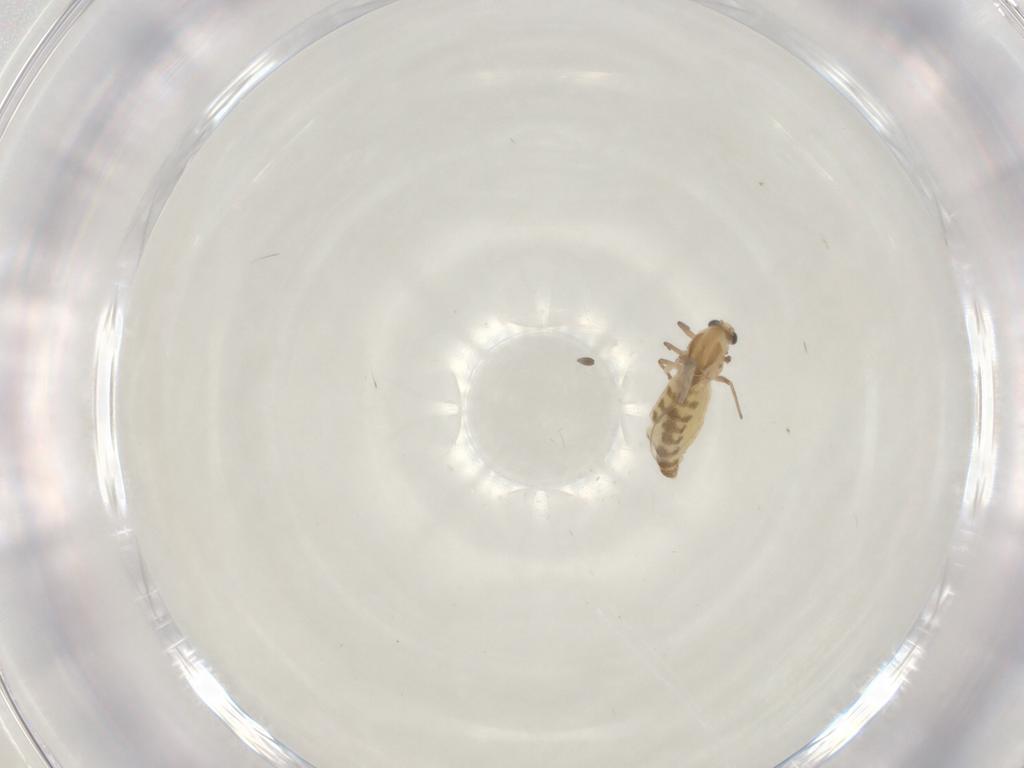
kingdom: Animalia
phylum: Arthropoda
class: Insecta
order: Diptera
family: Chironomidae
